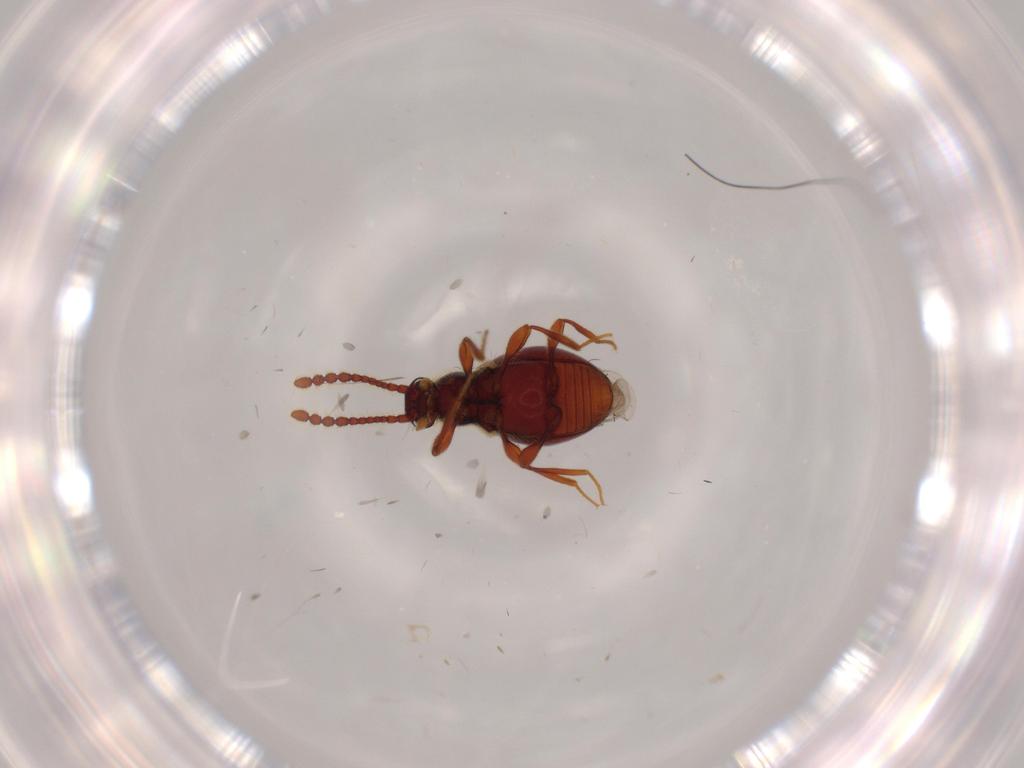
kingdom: Animalia
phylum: Arthropoda
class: Insecta
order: Coleoptera
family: Staphylinidae
